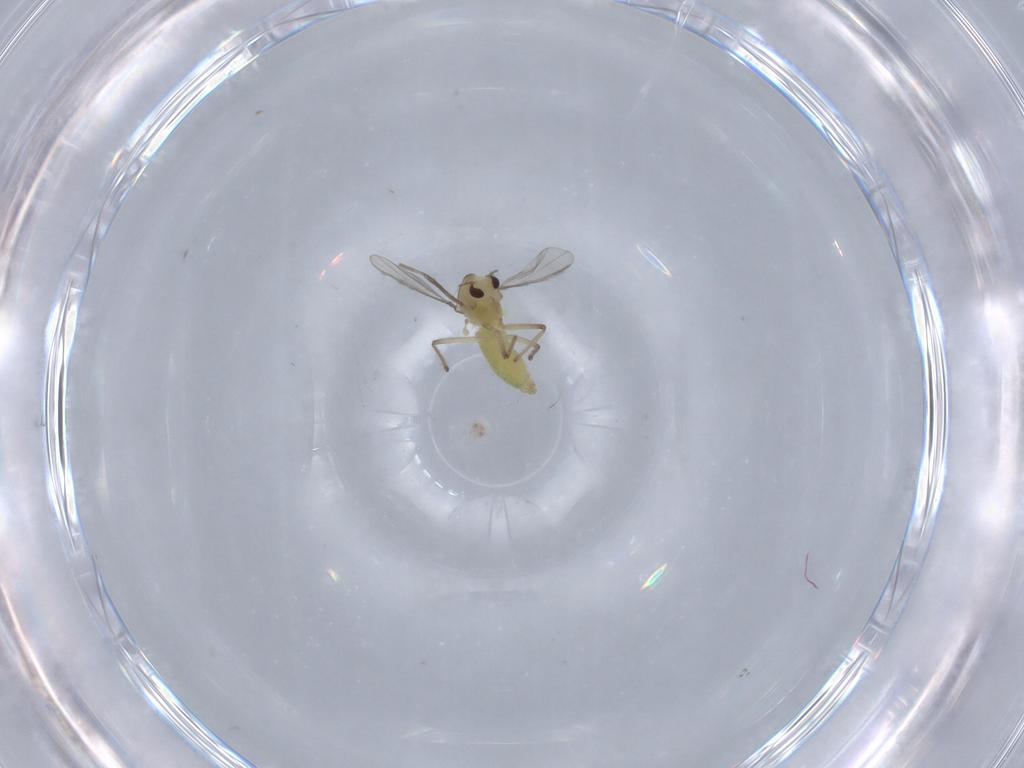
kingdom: Animalia
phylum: Arthropoda
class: Insecta
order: Diptera
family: Chironomidae
